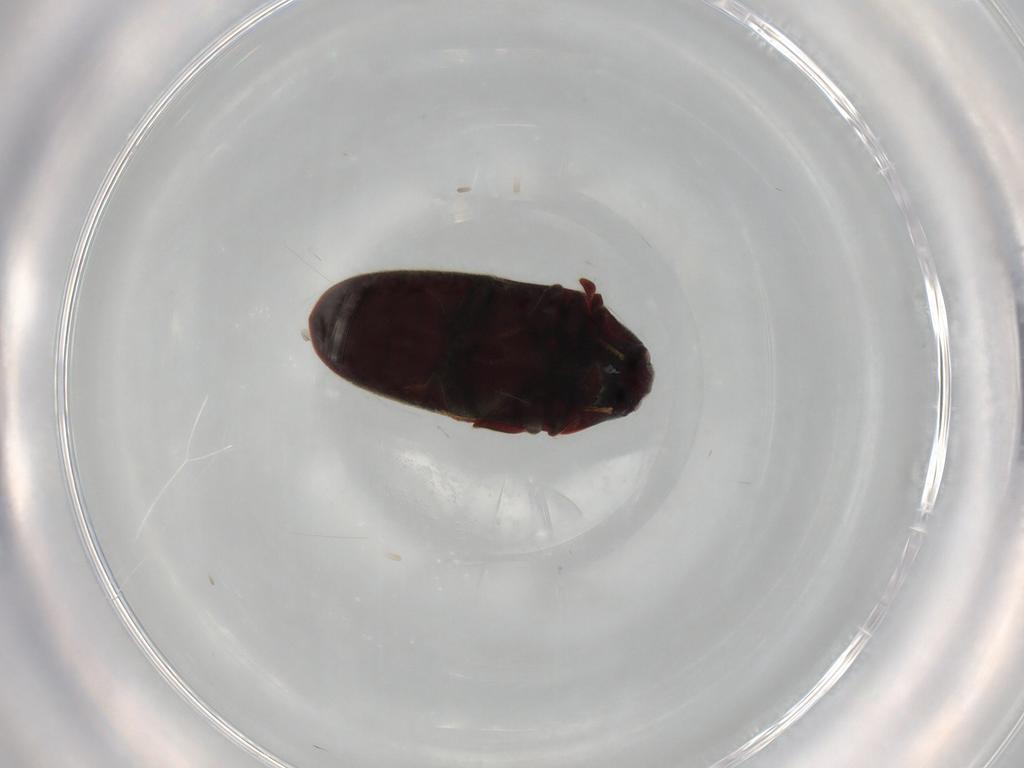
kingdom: Animalia
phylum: Arthropoda
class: Insecta
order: Coleoptera
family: Throscidae
